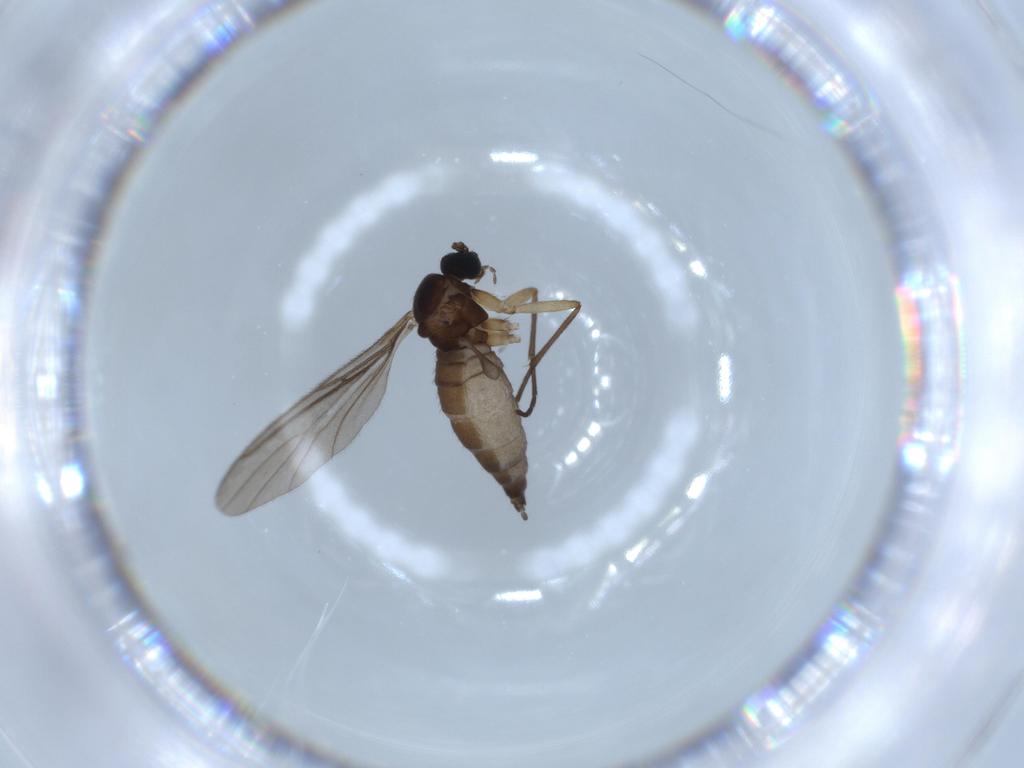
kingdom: Animalia
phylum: Arthropoda
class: Insecta
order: Diptera
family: Sciaridae
